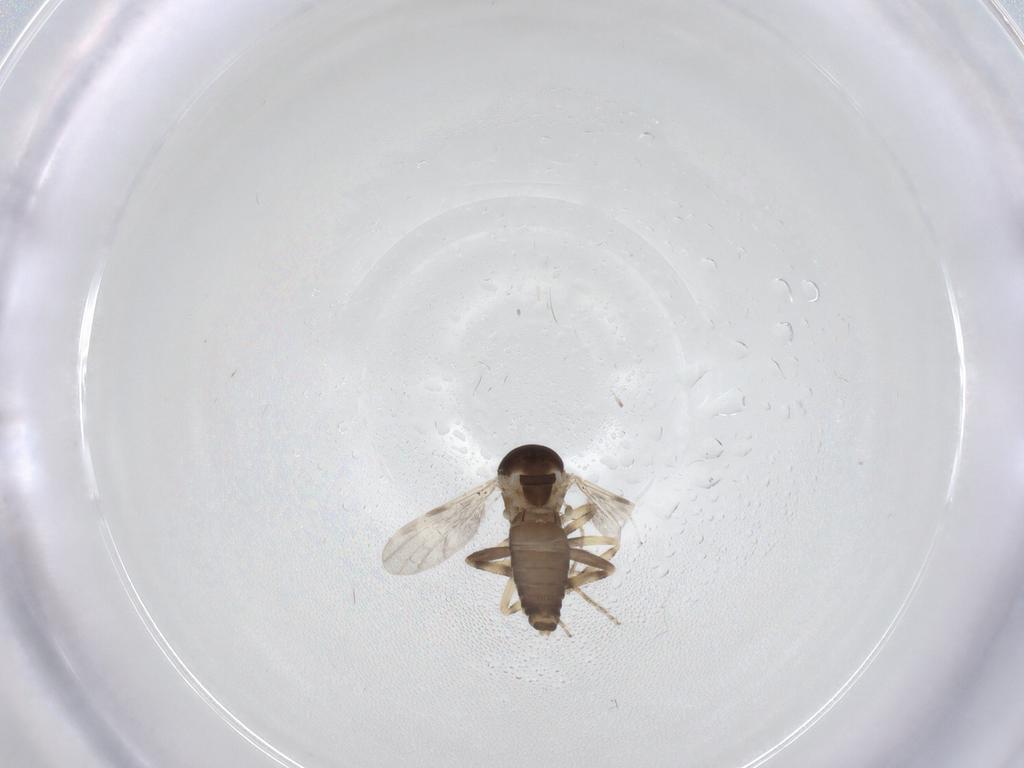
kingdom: Animalia
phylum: Arthropoda
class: Insecta
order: Diptera
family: Ceratopogonidae
